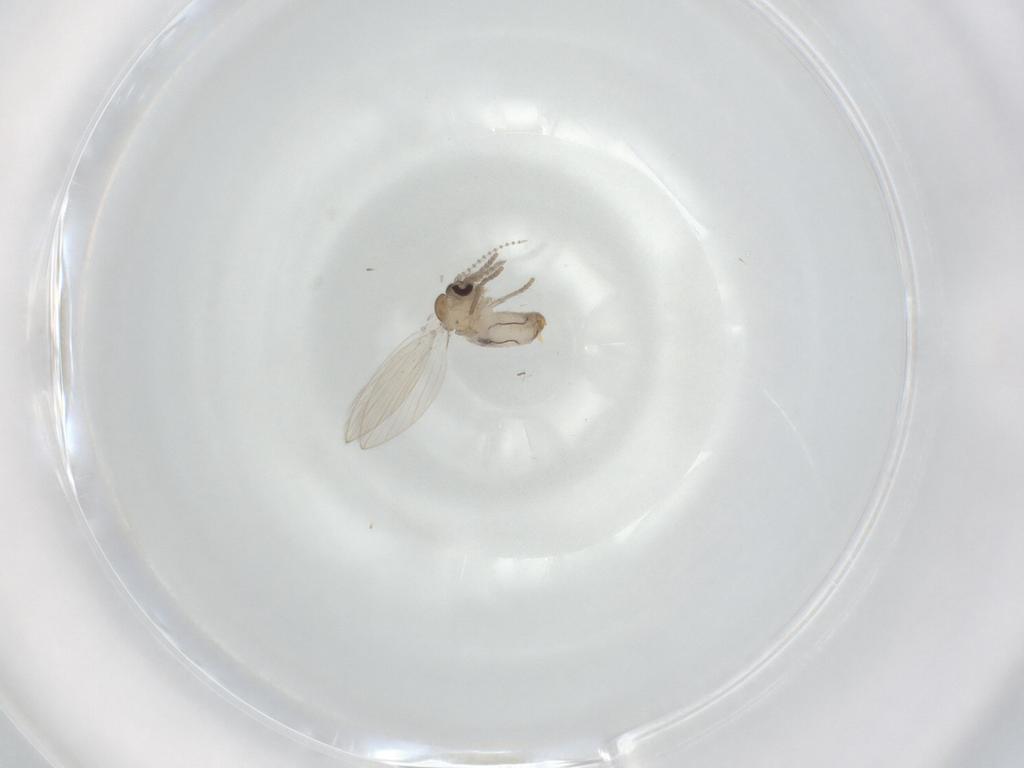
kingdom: Animalia
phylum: Arthropoda
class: Insecta
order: Diptera
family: Psychodidae
